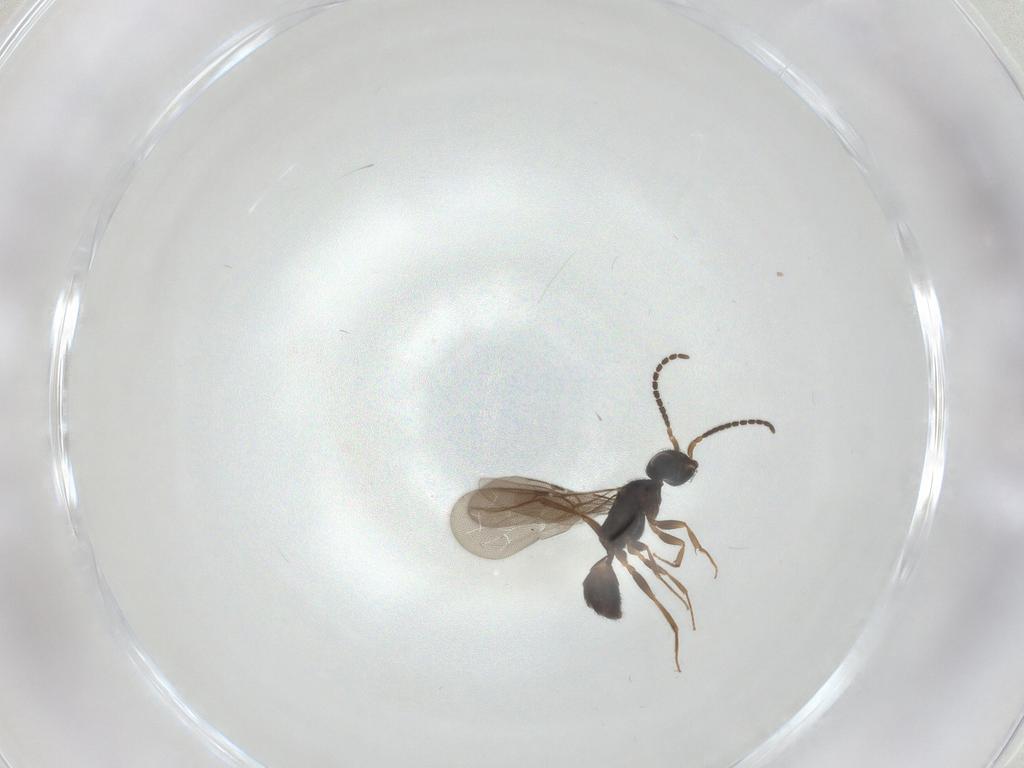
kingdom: Animalia
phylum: Arthropoda
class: Insecta
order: Hymenoptera
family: Bethylidae
